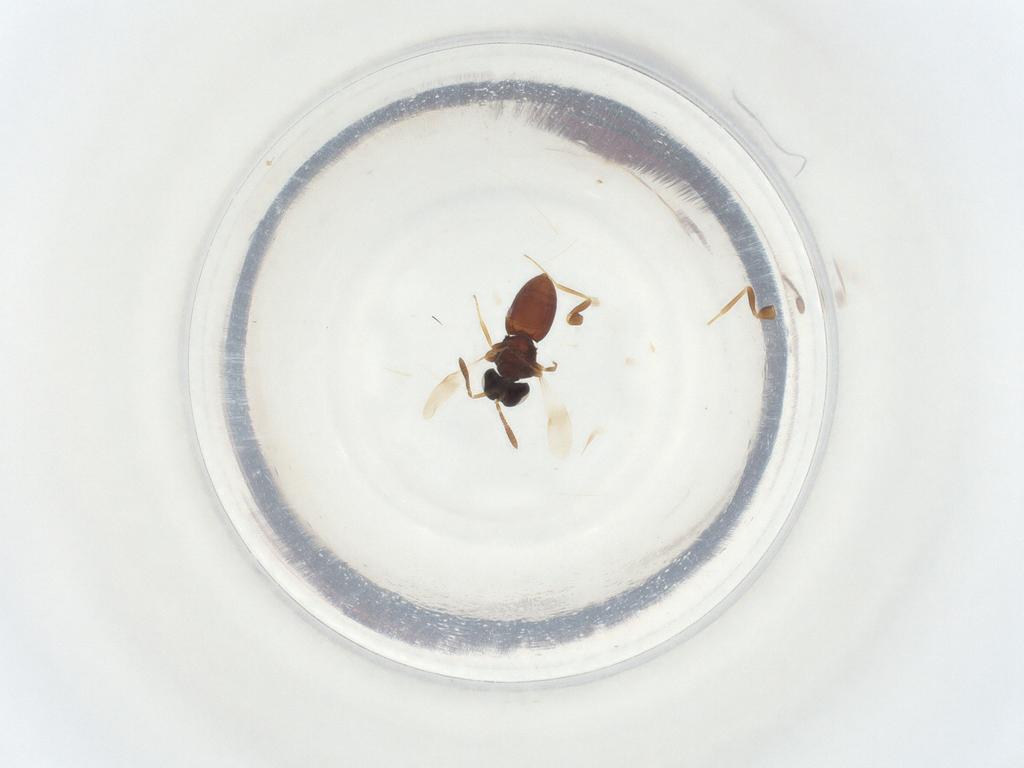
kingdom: Animalia
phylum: Arthropoda
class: Insecta
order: Hymenoptera
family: Scelionidae
